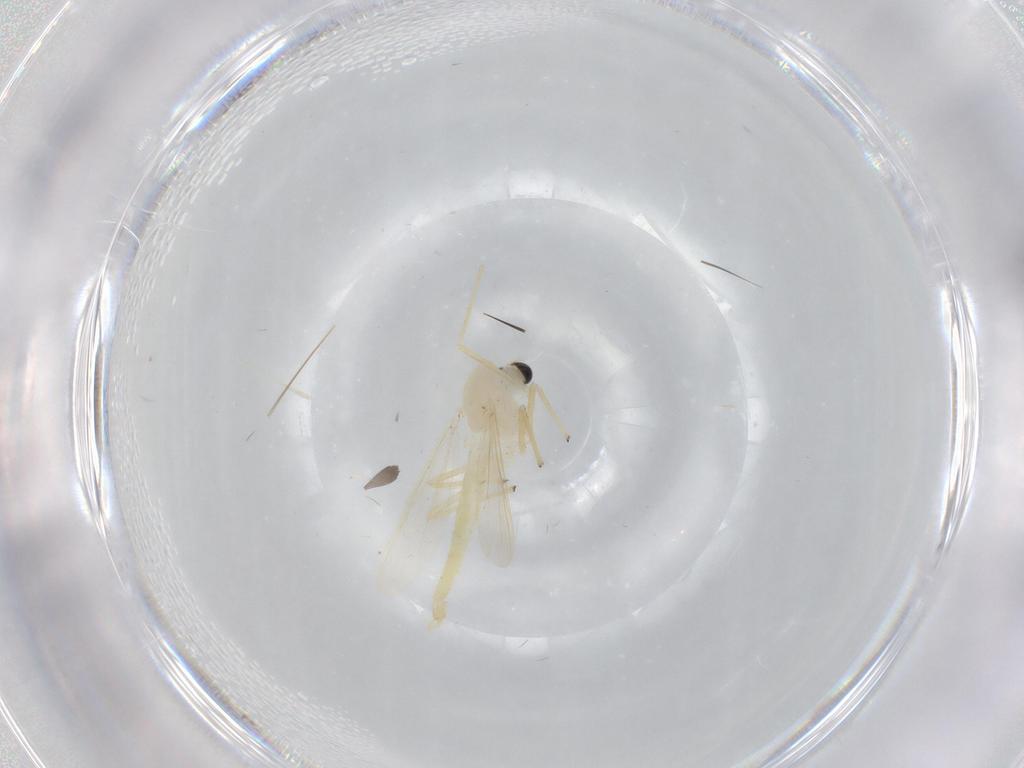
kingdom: Animalia
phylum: Arthropoda
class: Insecta
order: Diptera
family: Chironomidae
